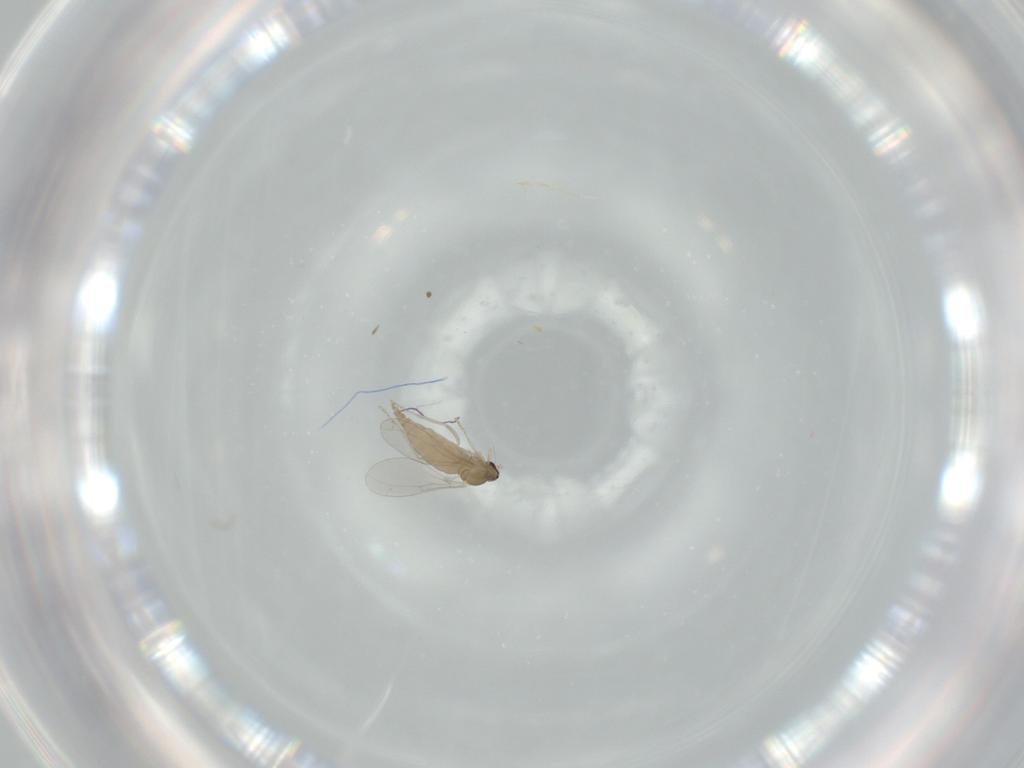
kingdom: Animalia
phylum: Arthropoda
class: Insecta
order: Diptera
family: Cecidomyiidae
